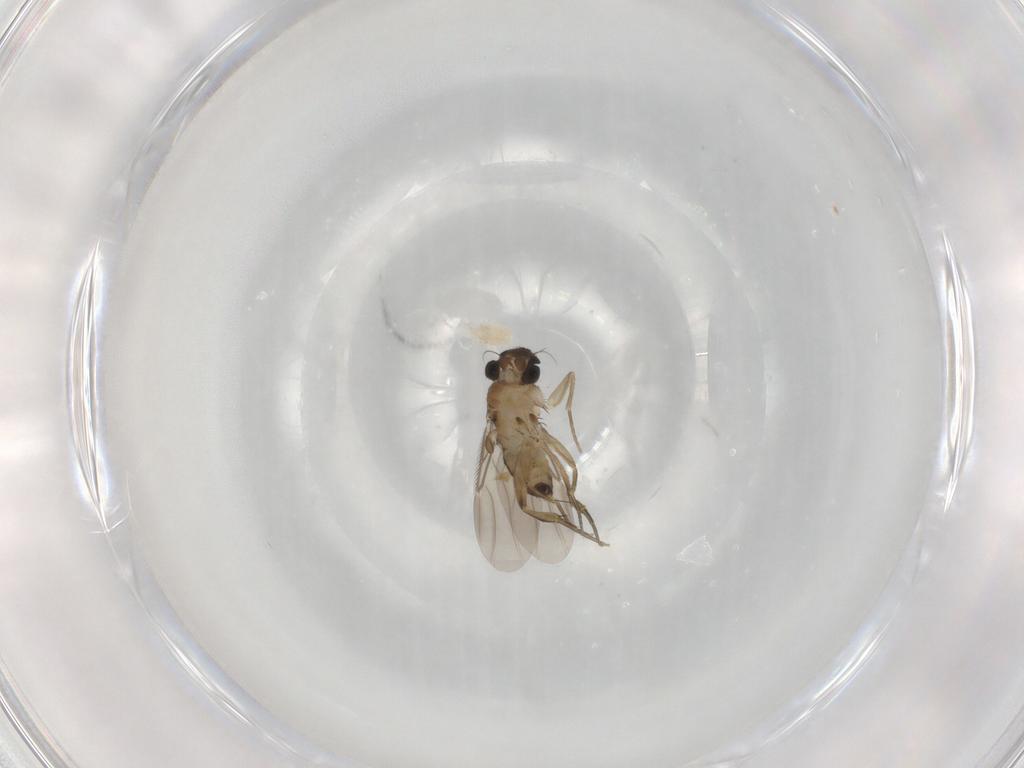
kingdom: Animalia
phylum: Arthropoda
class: Insecta
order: Diptera
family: Phoridae
